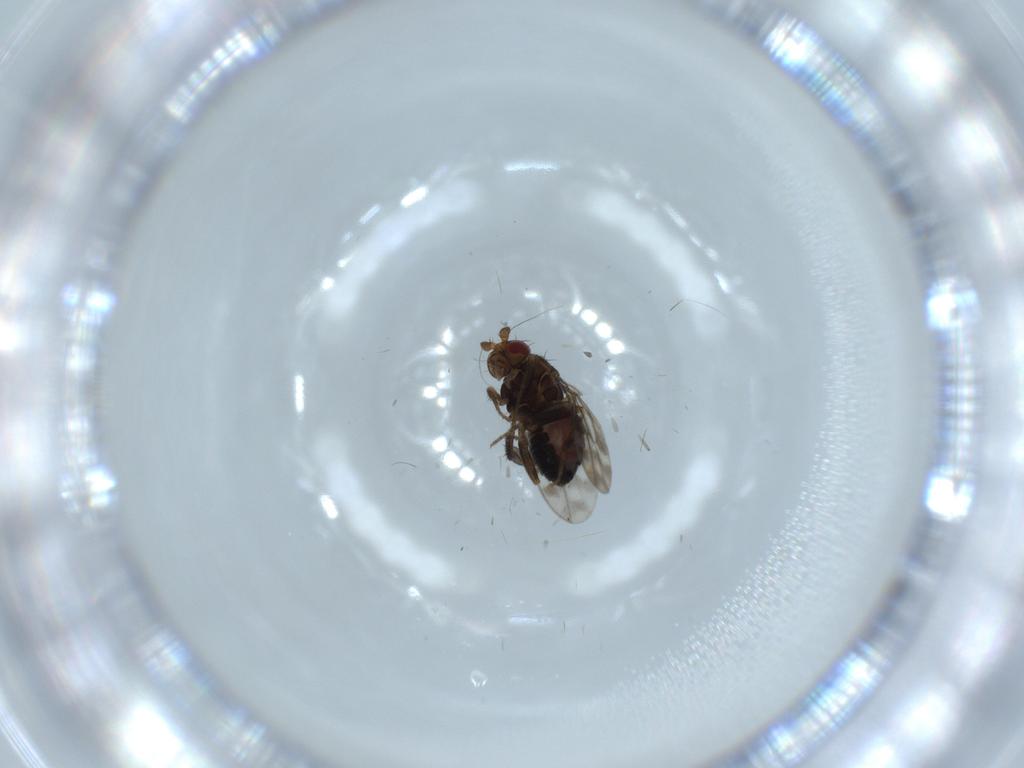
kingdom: Animalia
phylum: Arthropoda
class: Insecta
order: Diptera
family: Sphaeroceridae
